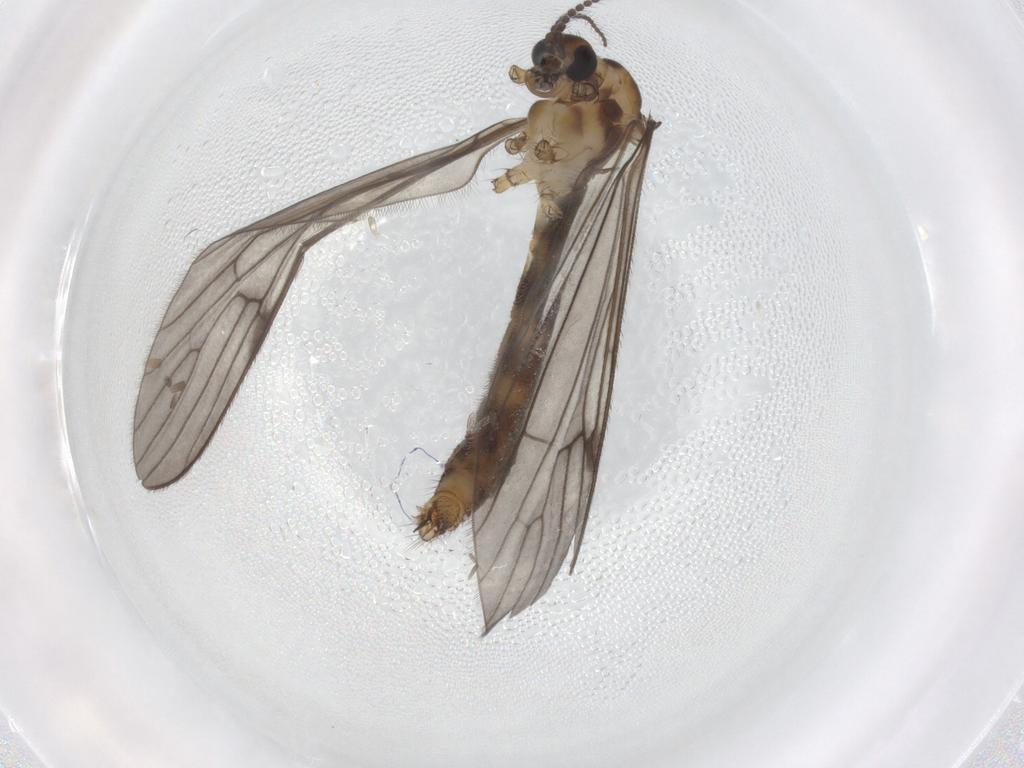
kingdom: Animalia
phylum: Arthropoda
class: Insecta
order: Diptera
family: Limoniidae
